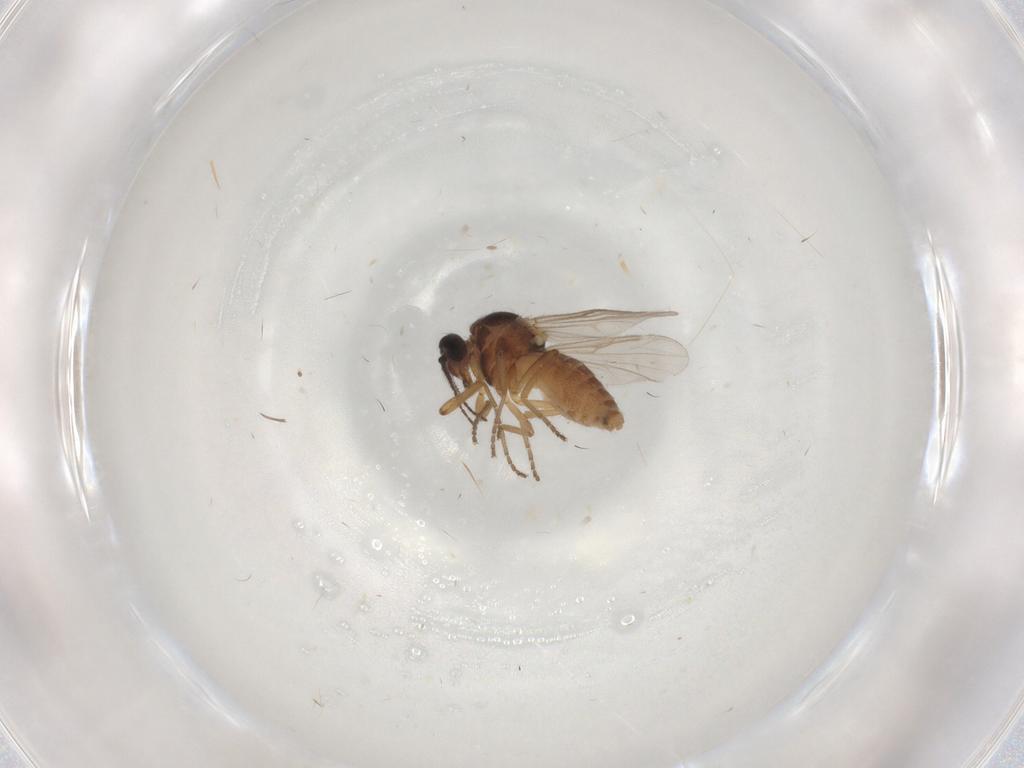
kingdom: Animalia
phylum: Arthropoda
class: Insecta
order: Diptera
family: Ceratopogonidae
